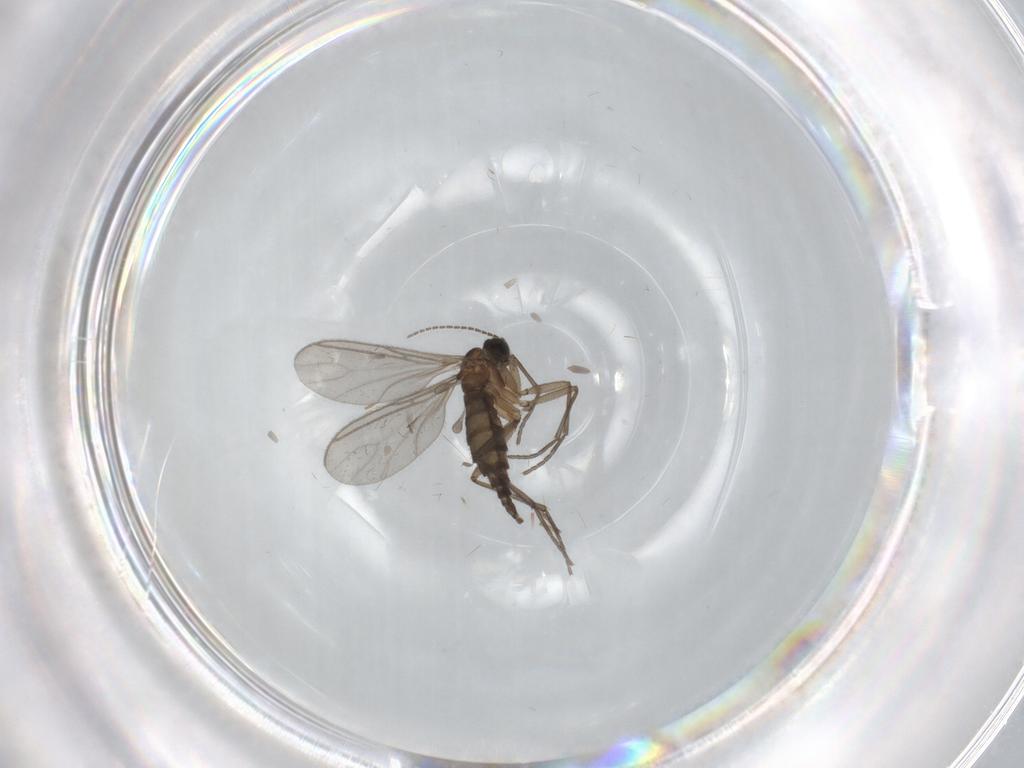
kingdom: Animalia
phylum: Arthropoda
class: Insecta
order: Diptera
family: Sciaridae
